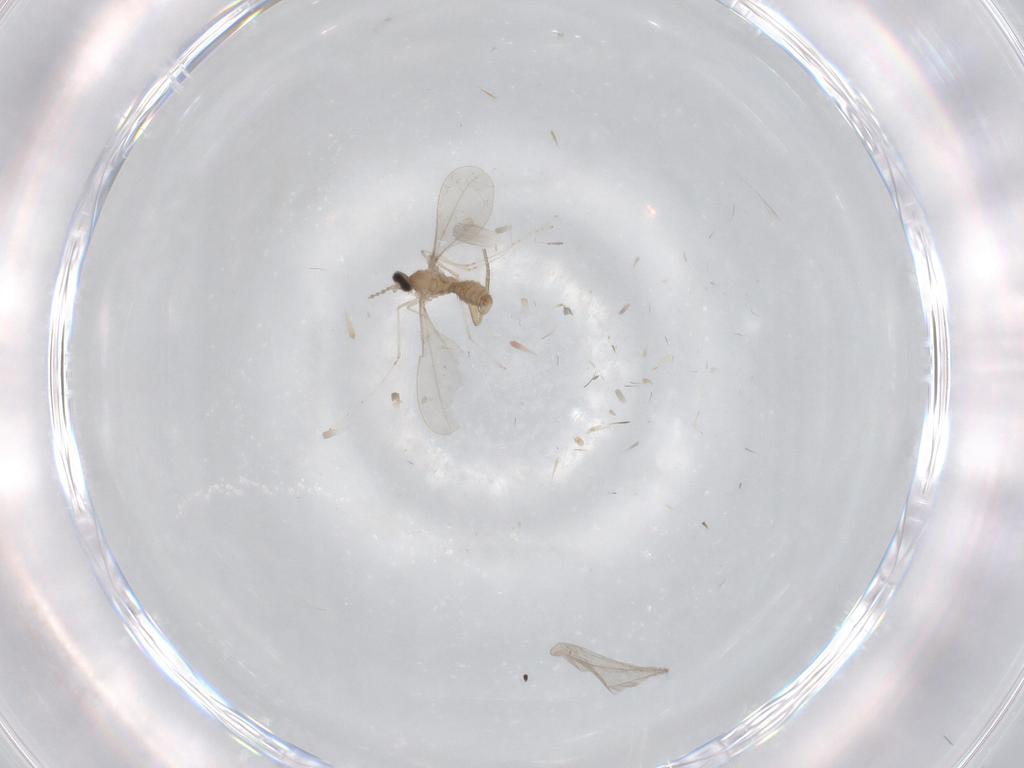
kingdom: Animalia
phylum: Arthropoda
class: Insecta
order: Diptera
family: Cecidomyiidae
